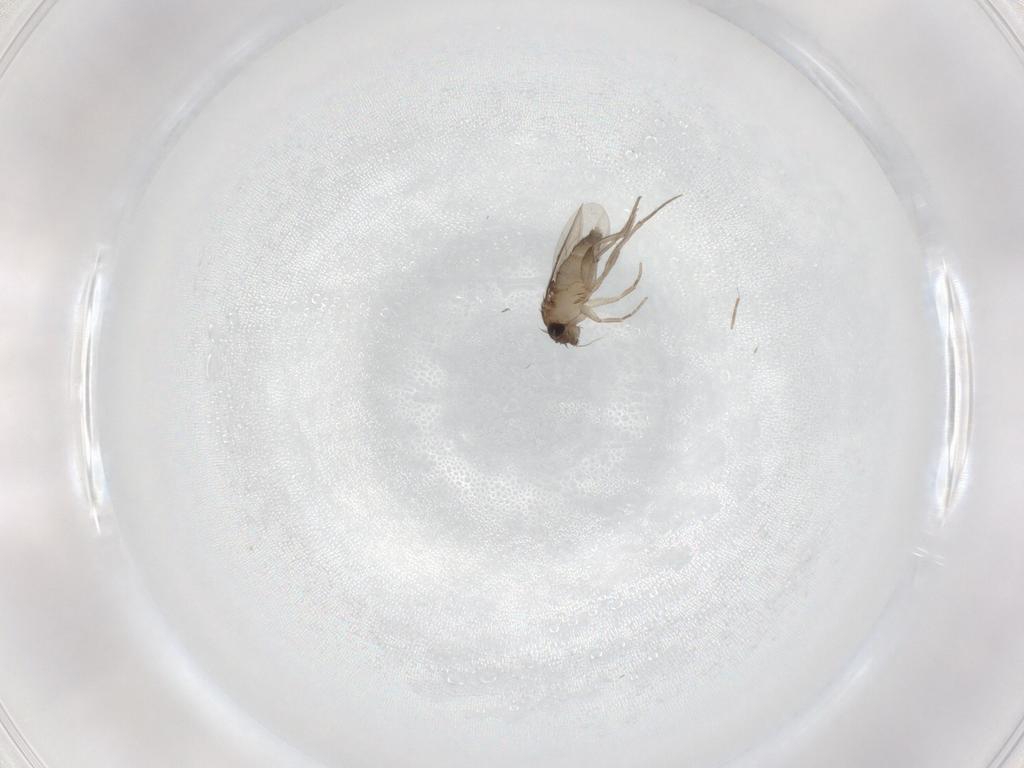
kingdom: Animalia
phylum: Arthropoda
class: Insecta
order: Diptera
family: Phoridae
